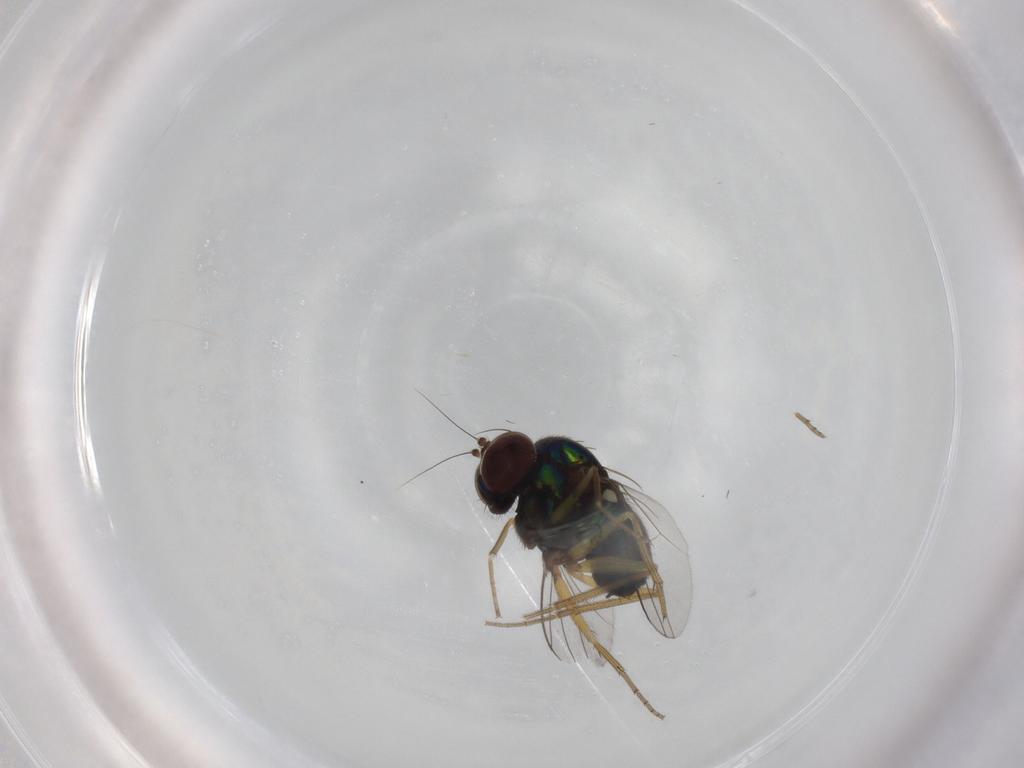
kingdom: Animalia
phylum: Arthropoda
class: Insecta
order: Diptera
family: Dolichopodidae
